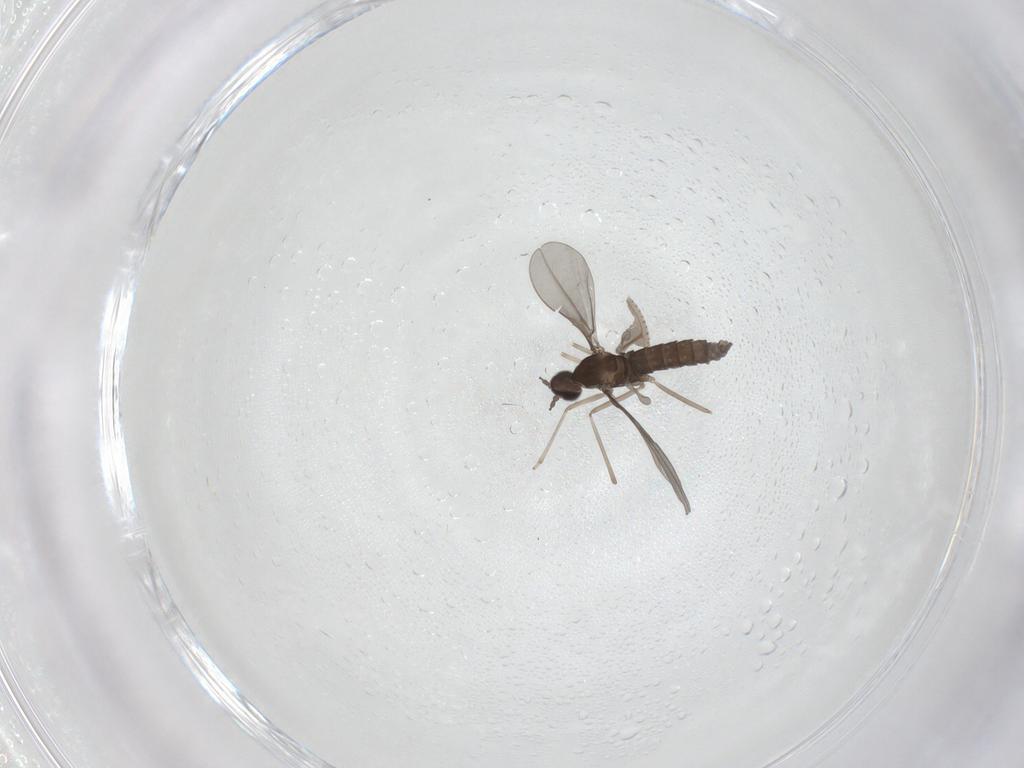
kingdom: Animalia
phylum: Arthropoda
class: Insecta
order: Diptera
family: Cecidomyiidae
